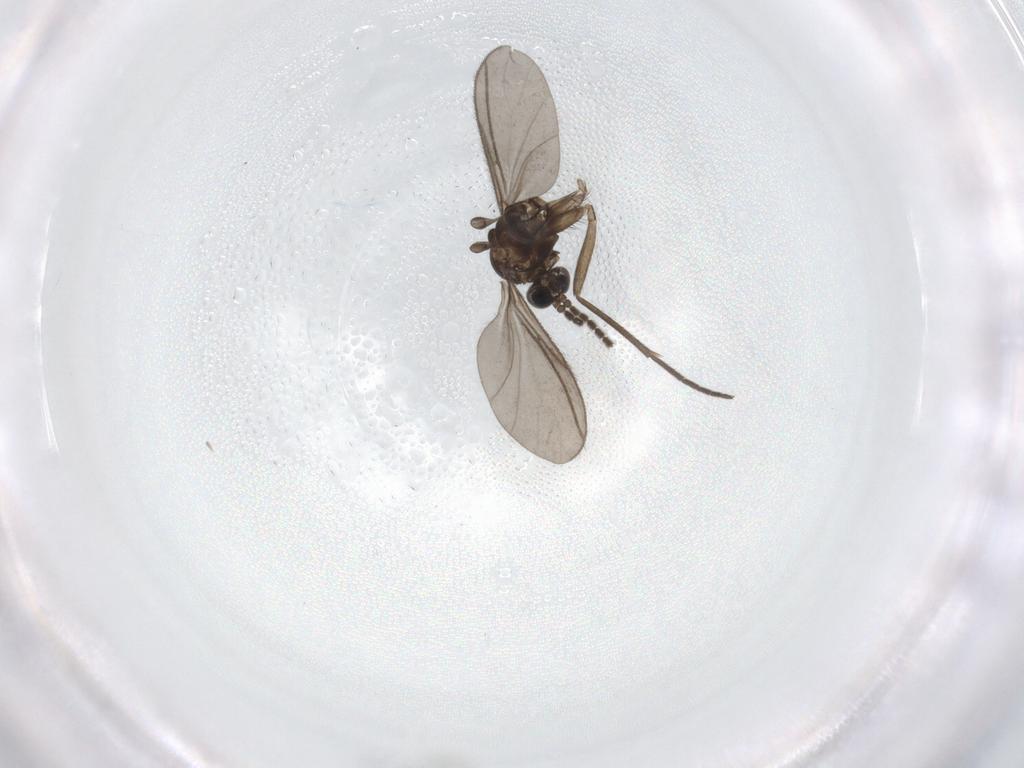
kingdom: Animalia
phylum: Arthropoda
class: Insecta
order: Diptera
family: Sciaridae
